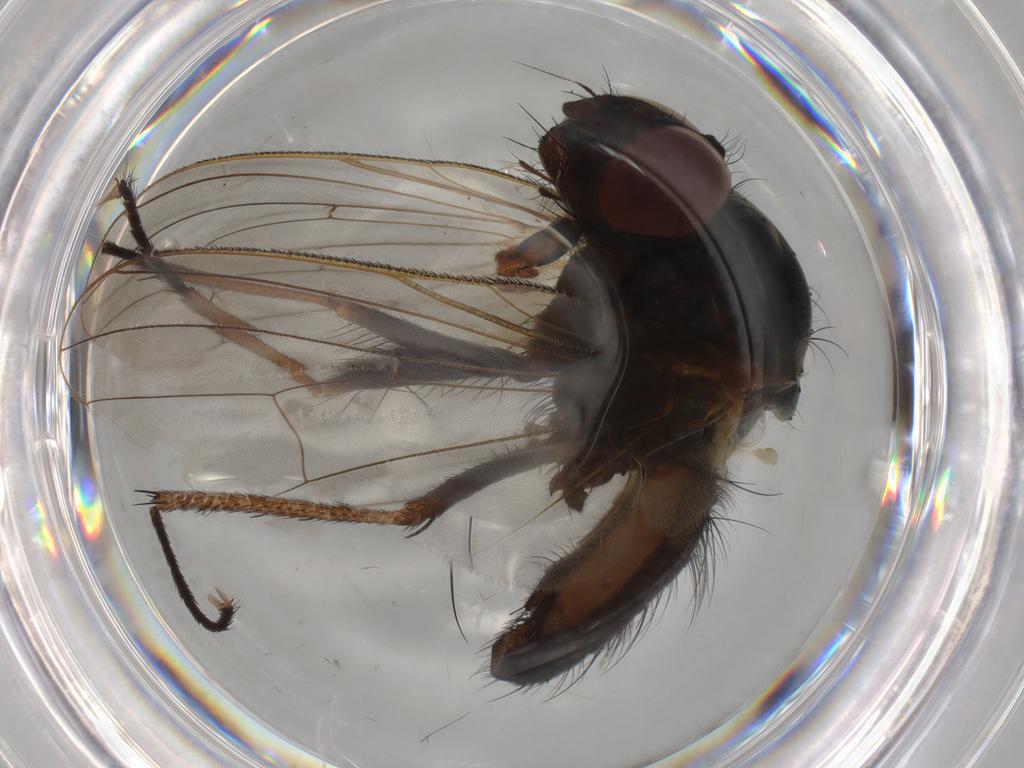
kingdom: Animalia
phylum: Arthropoda
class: Insecta
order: Diptera
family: Anthomyiidae
